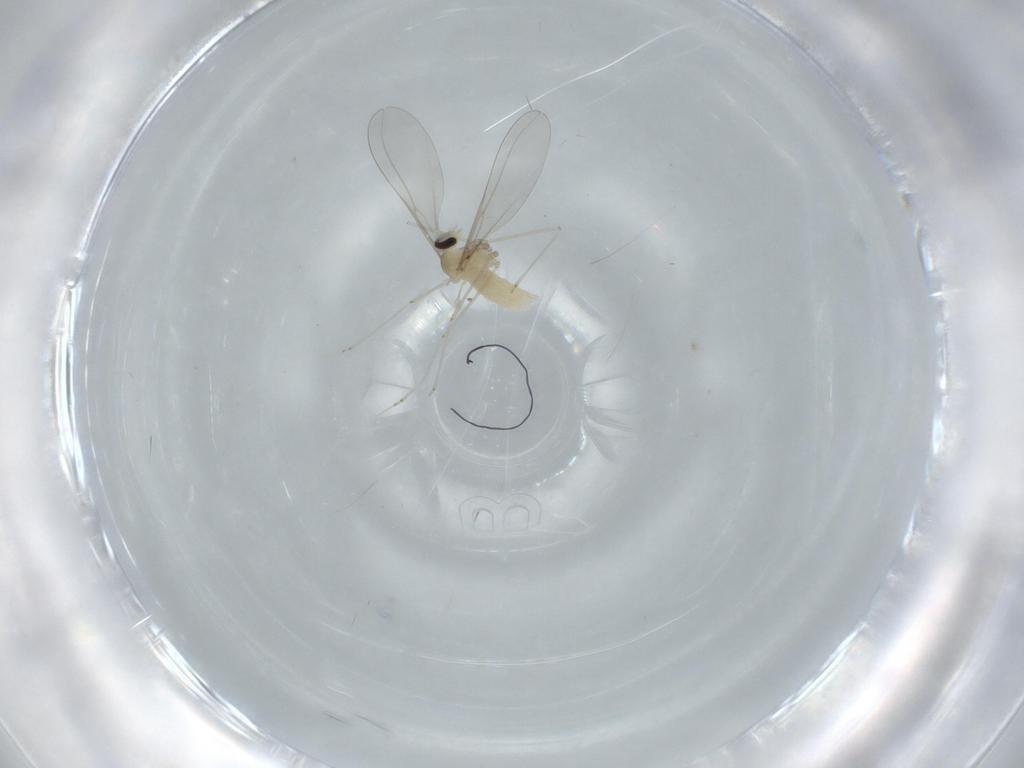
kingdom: Animalia
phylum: Arthropoda
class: Insecta
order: Diptera
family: Cecidomyiidae
